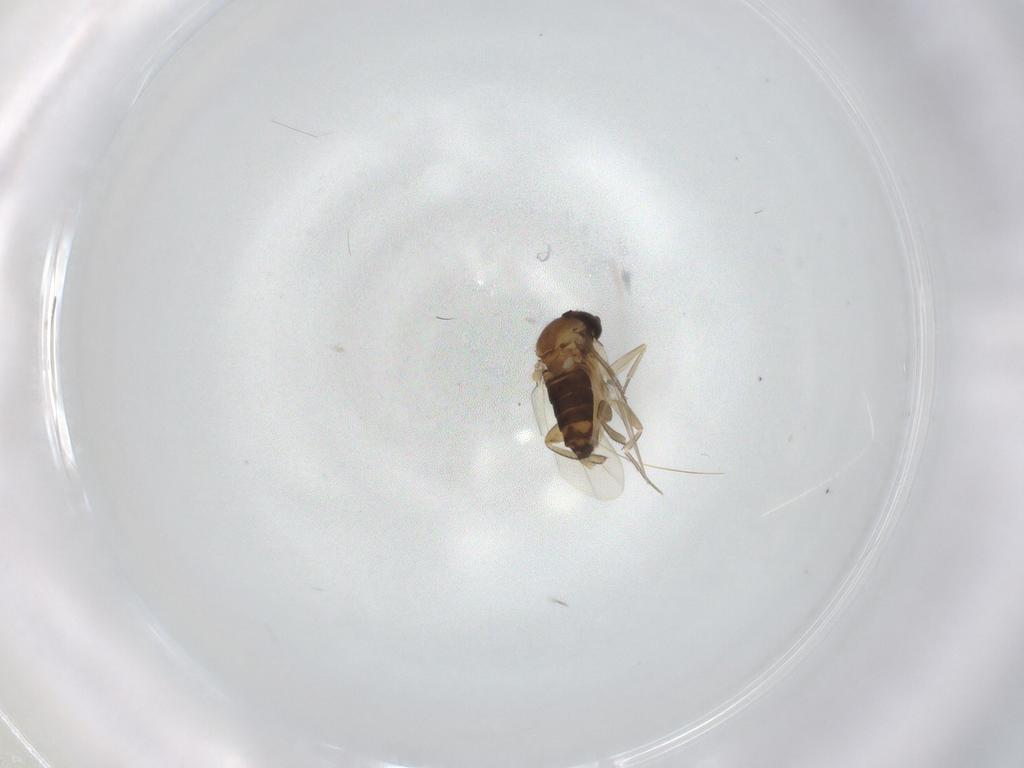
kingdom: Animalia
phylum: Arthropoda
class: Insecta
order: Diptera
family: Phoridae
